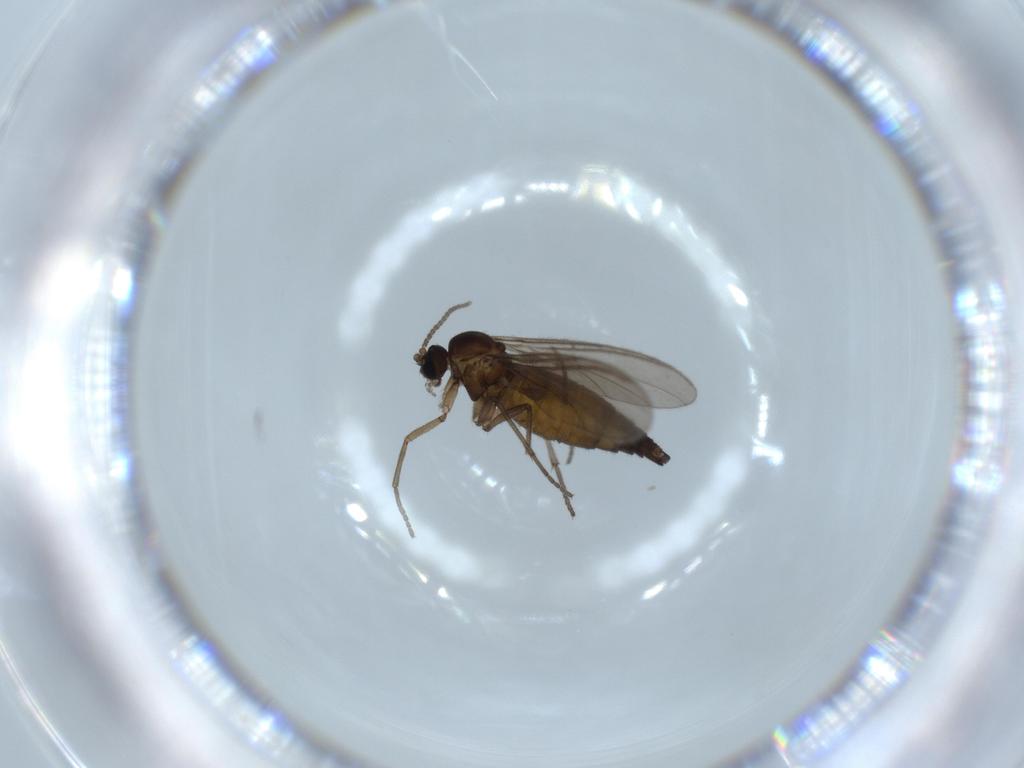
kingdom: Animalia
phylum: Arthropoda
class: Insecta
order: Diptera
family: Sciaridae
